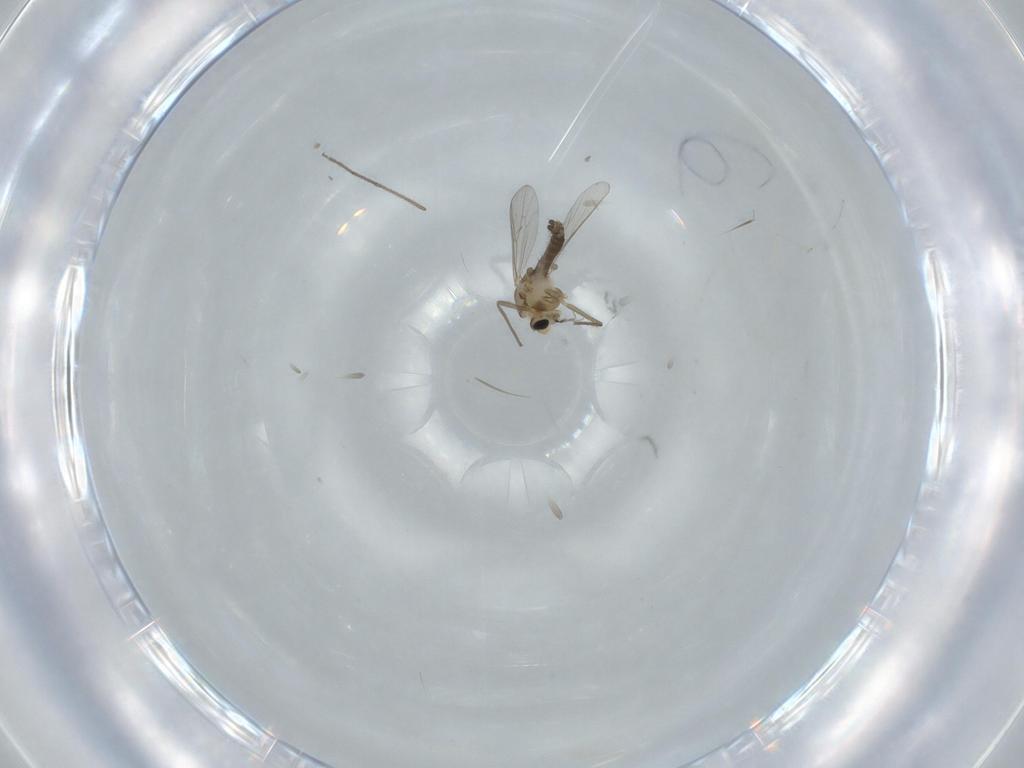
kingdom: Animalia
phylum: Arthropoda
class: Insecta
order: Diptera
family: Chironomidae
